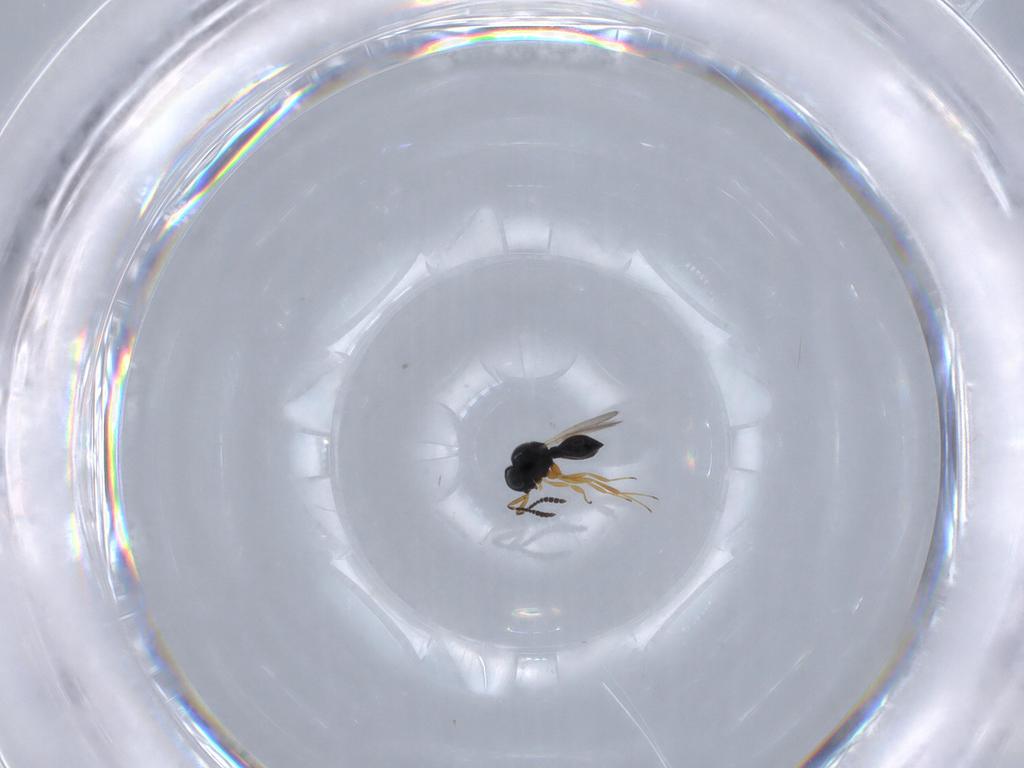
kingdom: Animalia
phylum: Arthropoda
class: Insecta
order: Hymenoptera
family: Scelionidae
